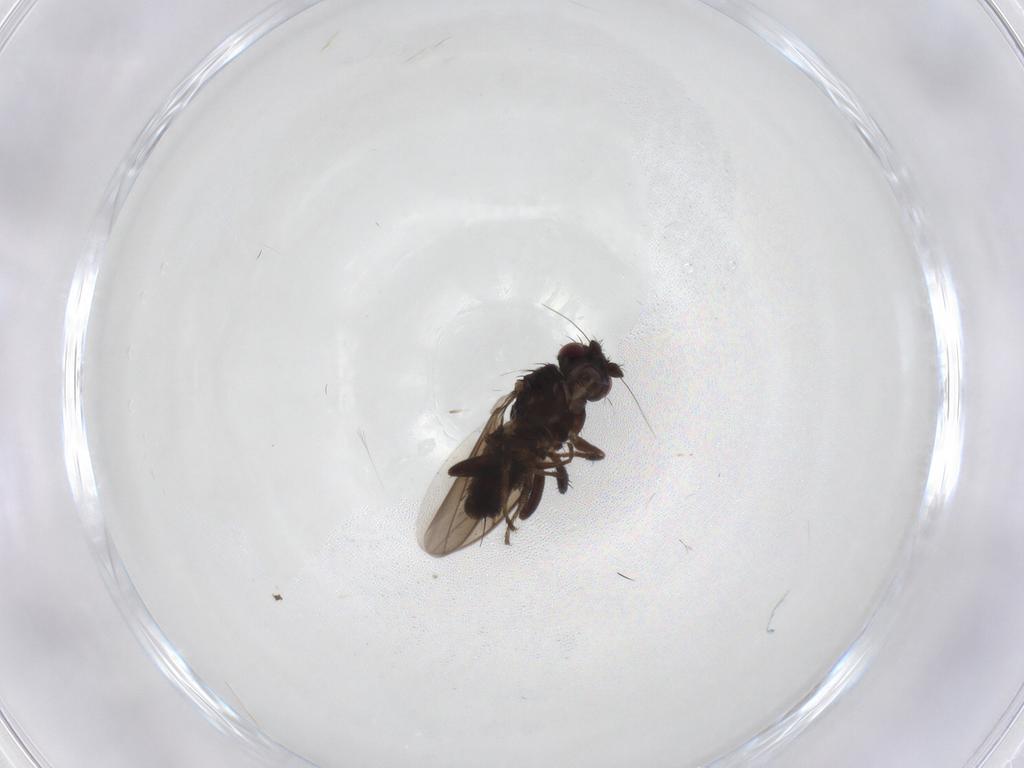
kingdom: Animalia
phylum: Arthropoda
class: Insecta
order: Diptera
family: Sphaeroceridae
